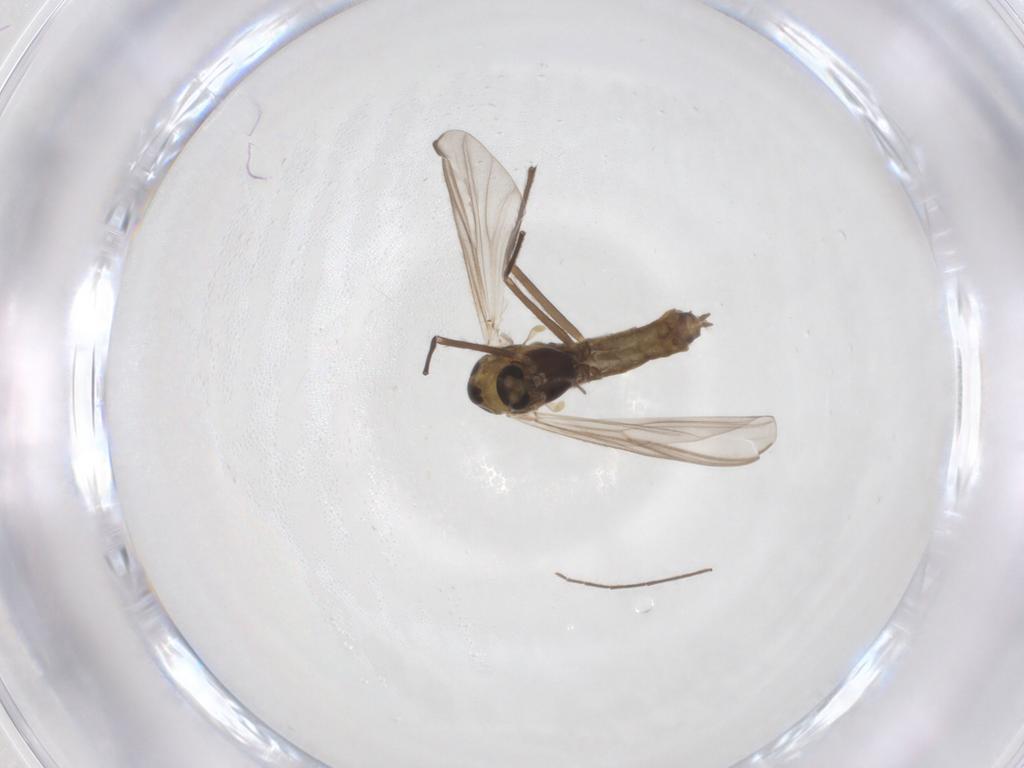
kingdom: Animalia
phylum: Arthropoda
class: Insecta
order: Diptera
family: Chironomidae
